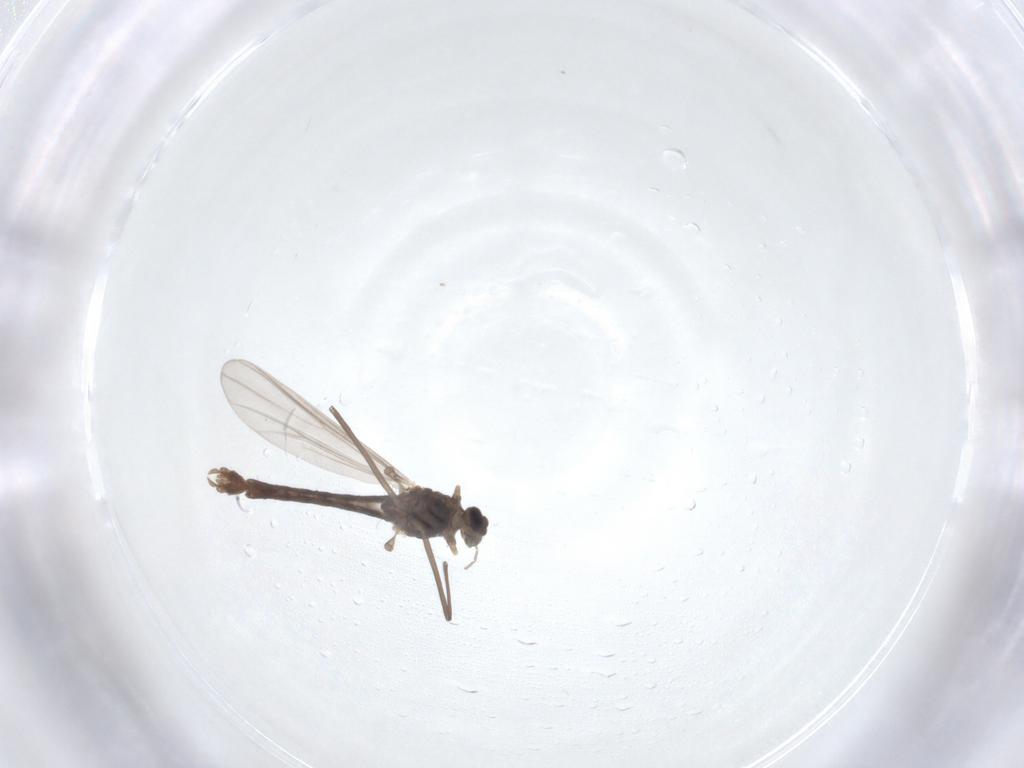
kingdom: Animalia
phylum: Arthropoda
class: Insecta
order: Diptera
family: Chironomidae
